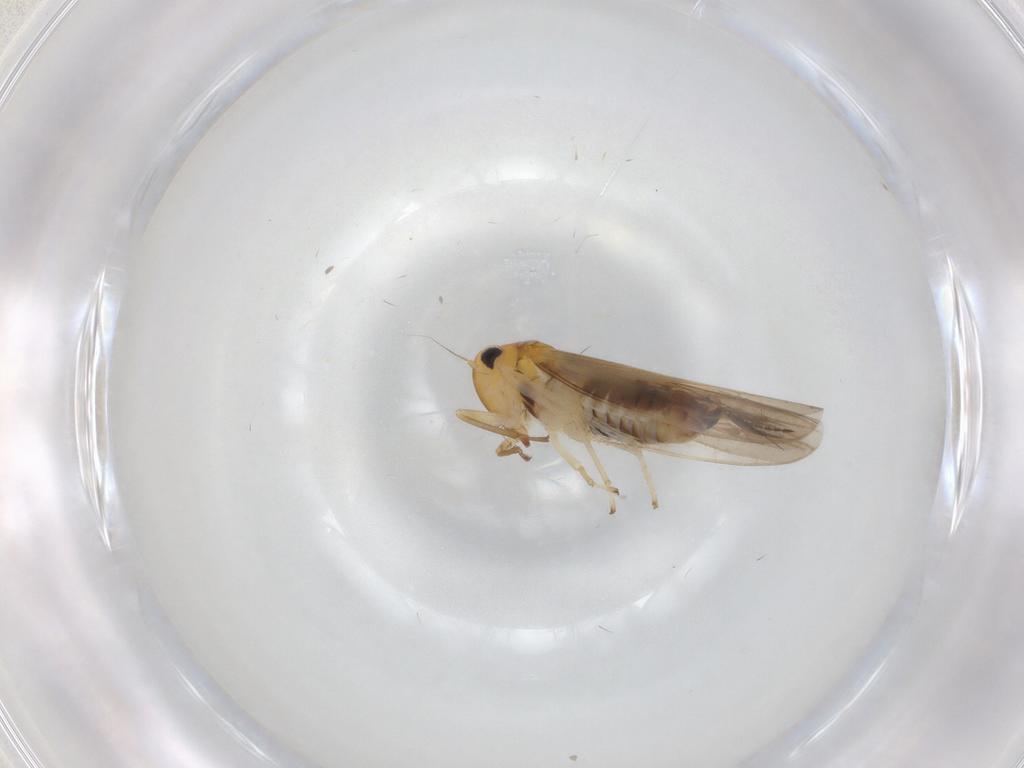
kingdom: Animalia
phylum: Arthropoda
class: Insecta
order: Hemiptera
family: Cicadellidae
